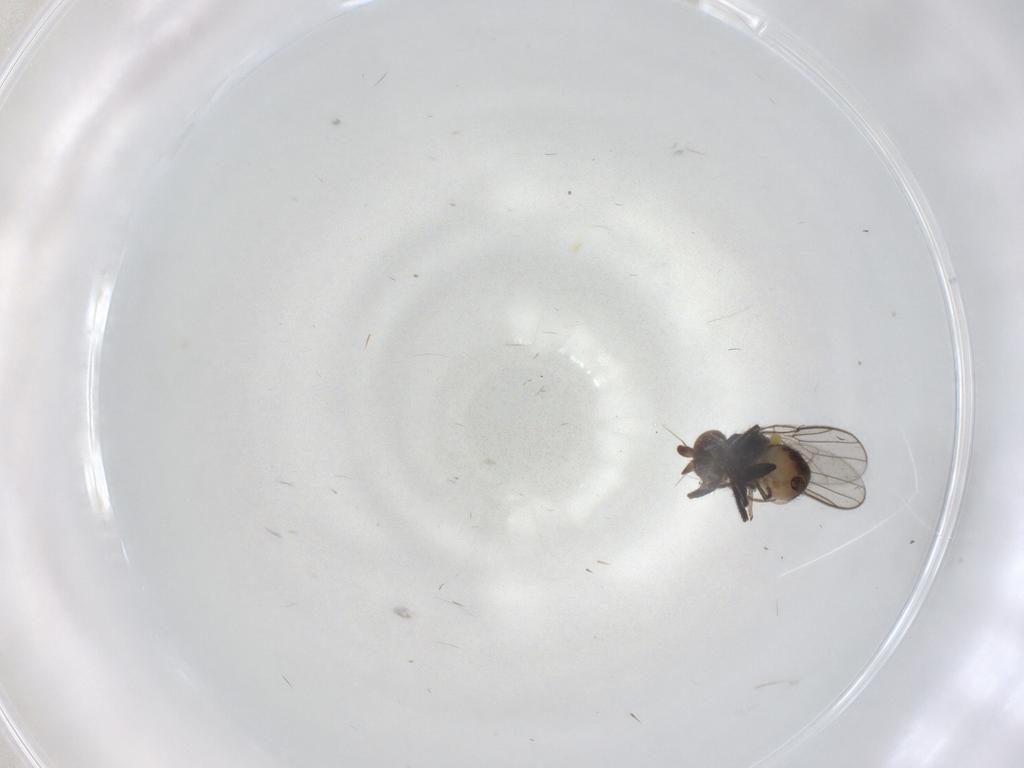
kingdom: Animalia
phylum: Arthropoda
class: Insecta
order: Diptera
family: Chloropidae
